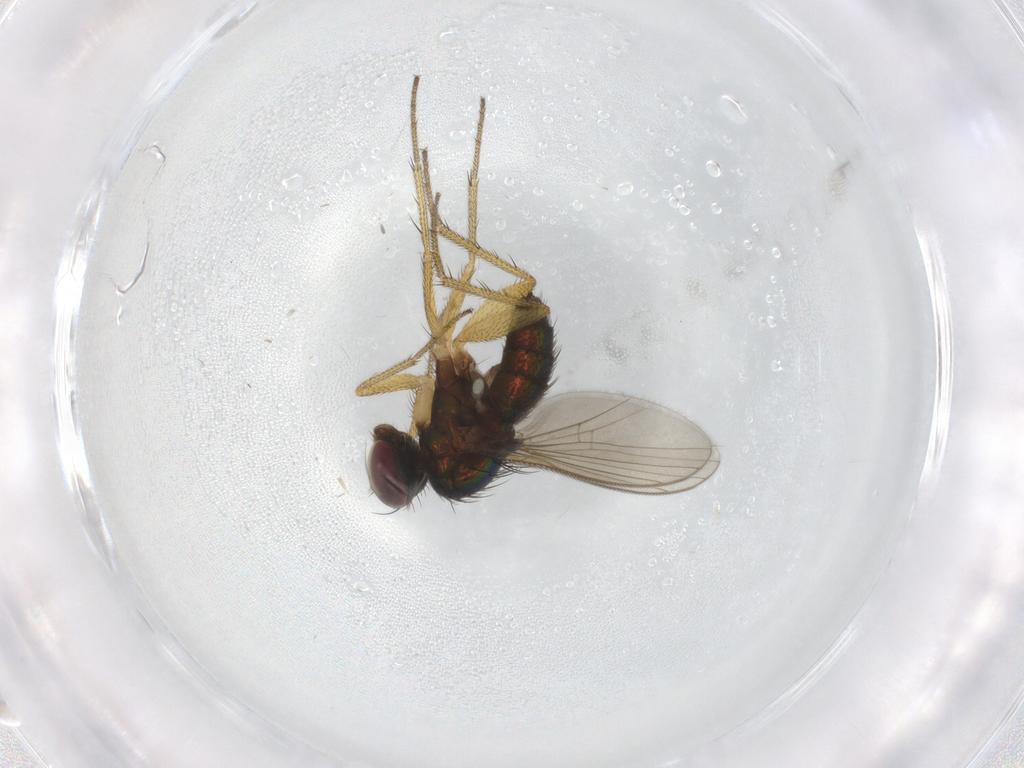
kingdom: Animalia
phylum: Arthropoda
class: Insecta
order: Diptera
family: Dolichopodidae
